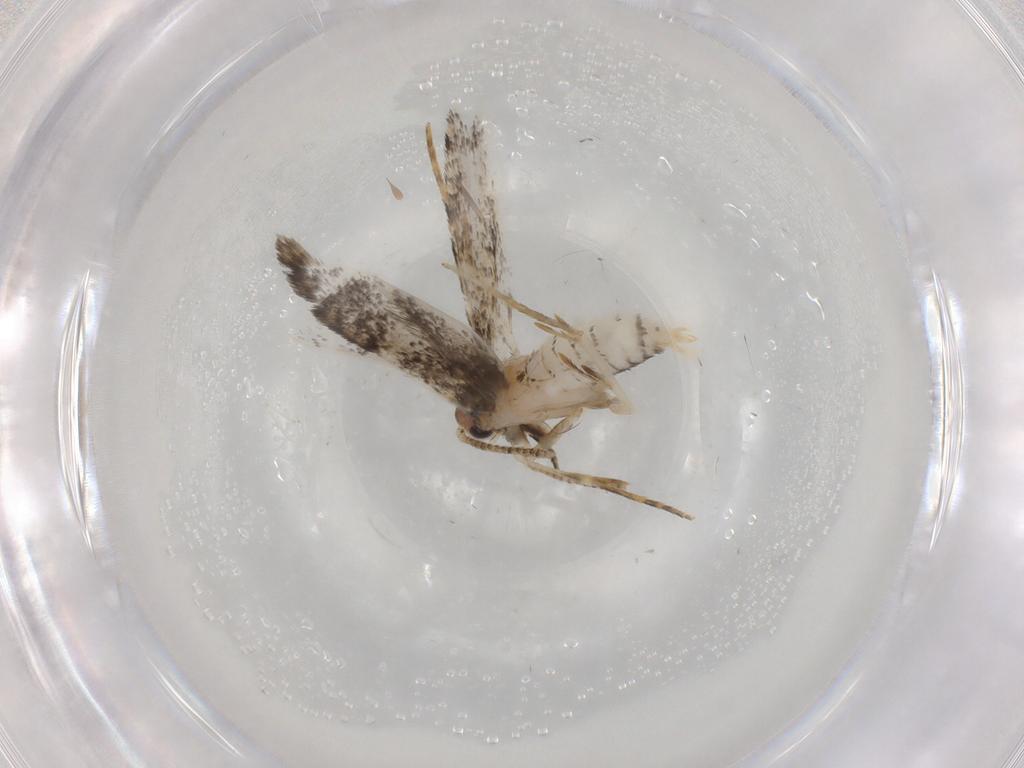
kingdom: Animalia
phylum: Arthropoda
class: Insecta
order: Lepidoptera
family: Tineidae
